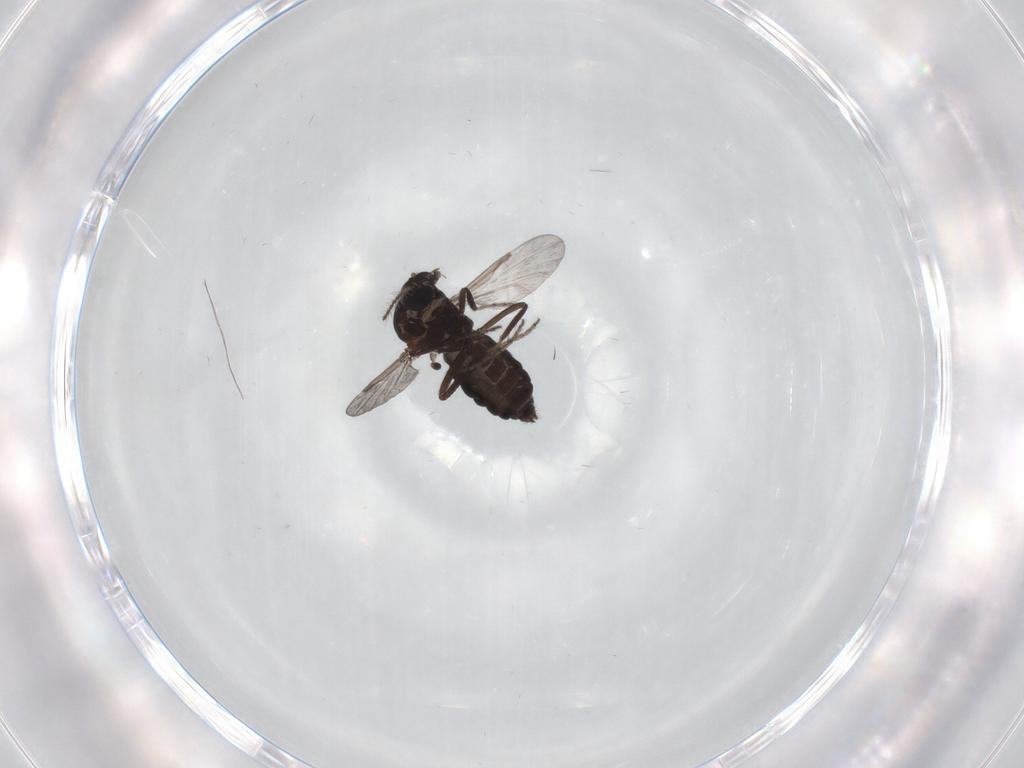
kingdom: Animalia
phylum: Arthropoda
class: Insecta
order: Diptera
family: Ceratopogonidae
